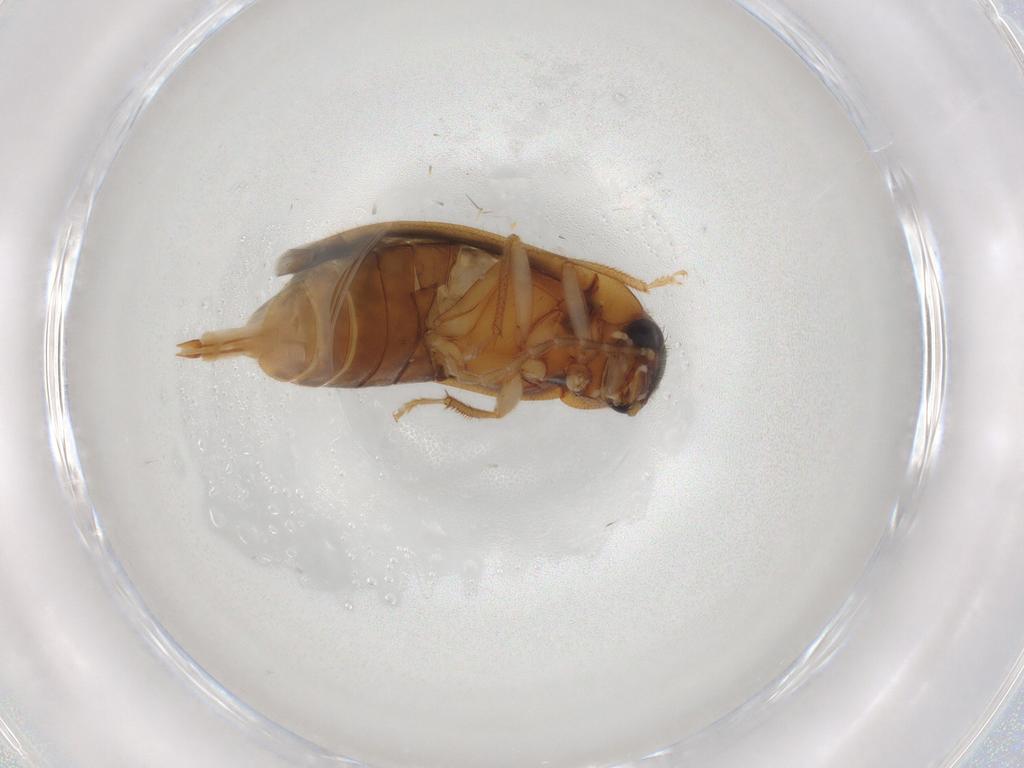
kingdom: Animalia
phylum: Arthropoda
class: Insecta
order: Coleoptera
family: Ptilodactylidae
